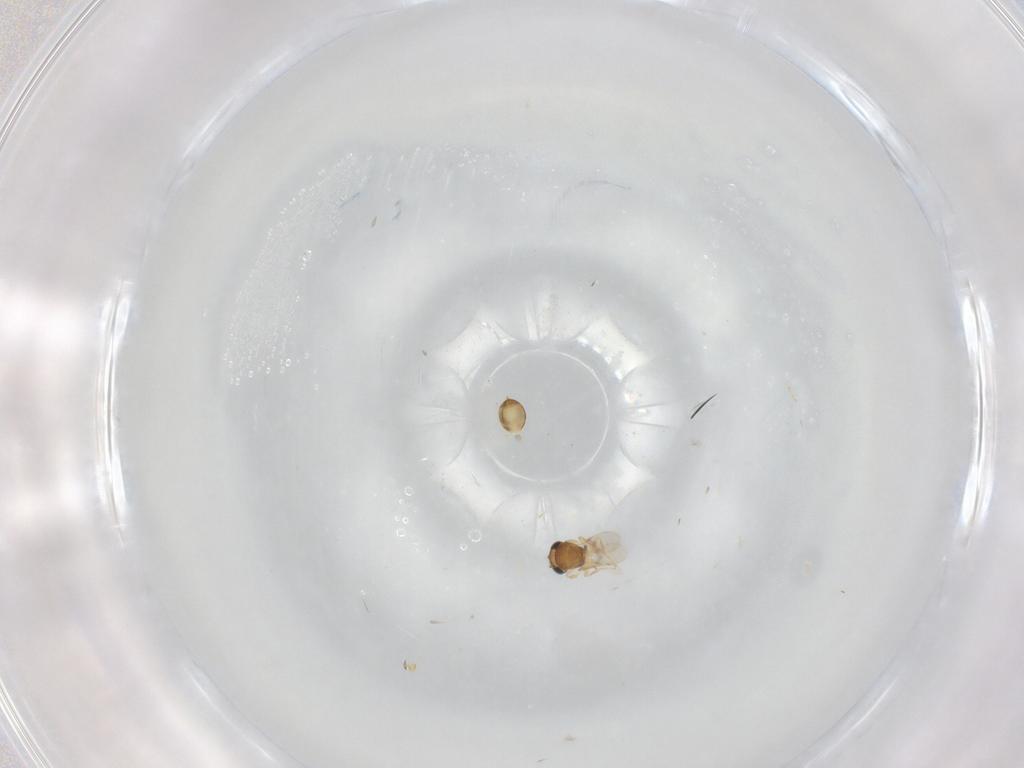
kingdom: Animalia
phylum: Arthropoda
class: Insecta
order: Hymenoptera
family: Scelionidae
